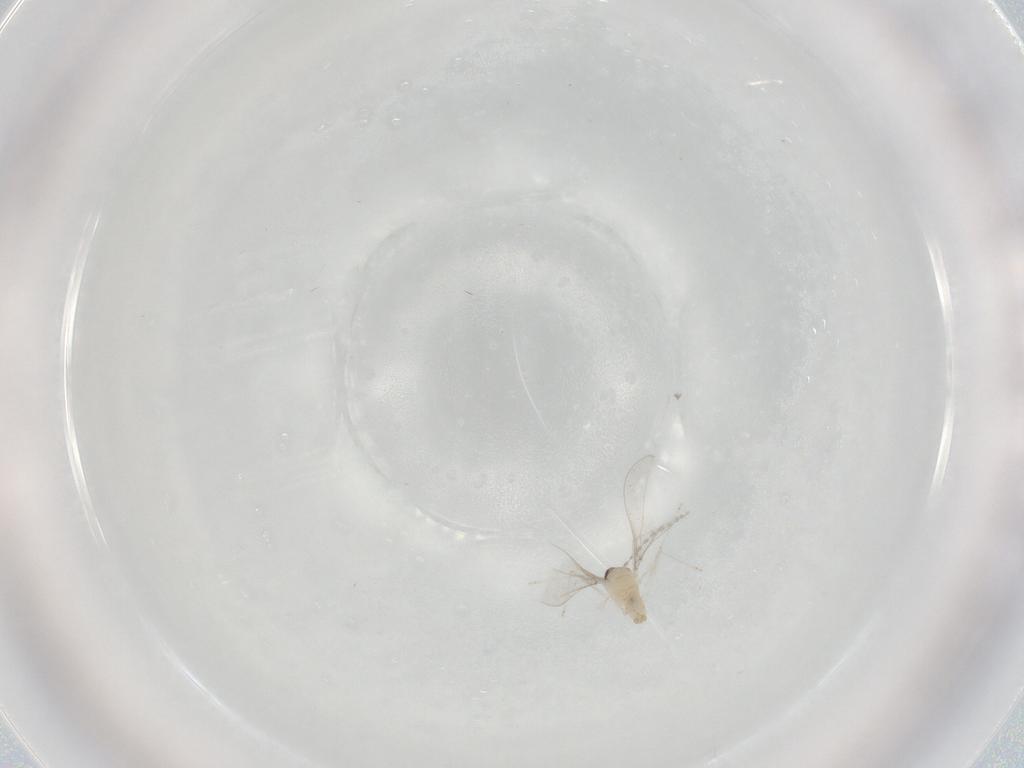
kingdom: Animalia
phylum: Arthropoda
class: Insecta
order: Diptera
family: Cecidomyiidae
